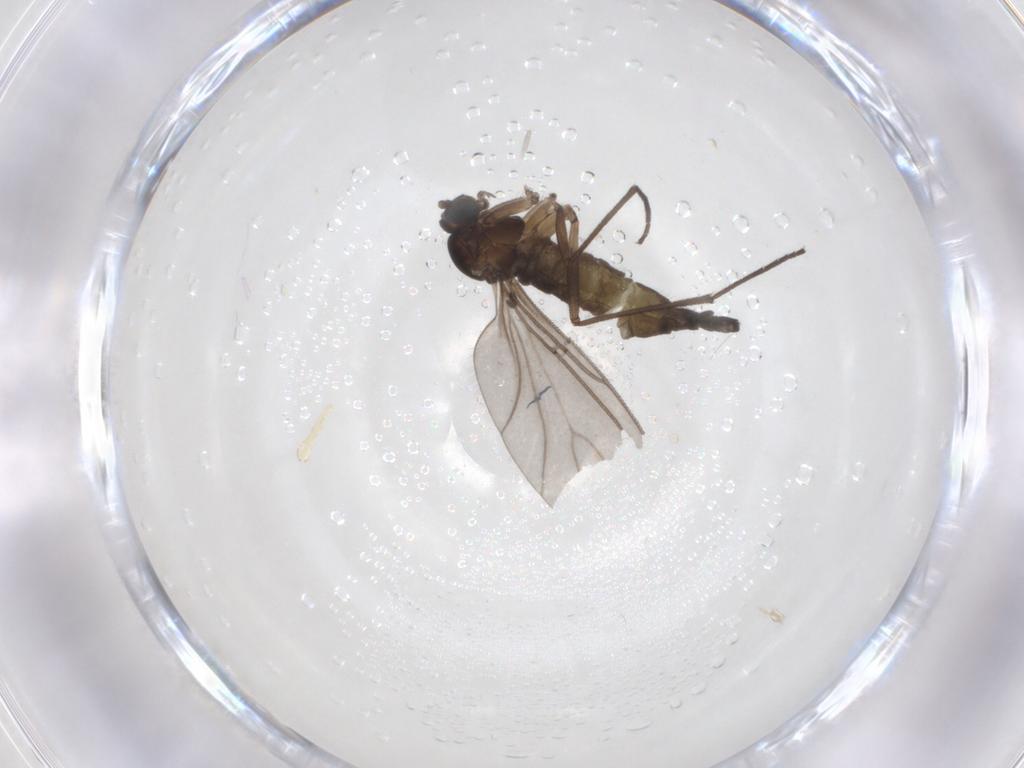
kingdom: Animalia
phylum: Arthropoda
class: Insecta
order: Diptera
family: Sciaridae
